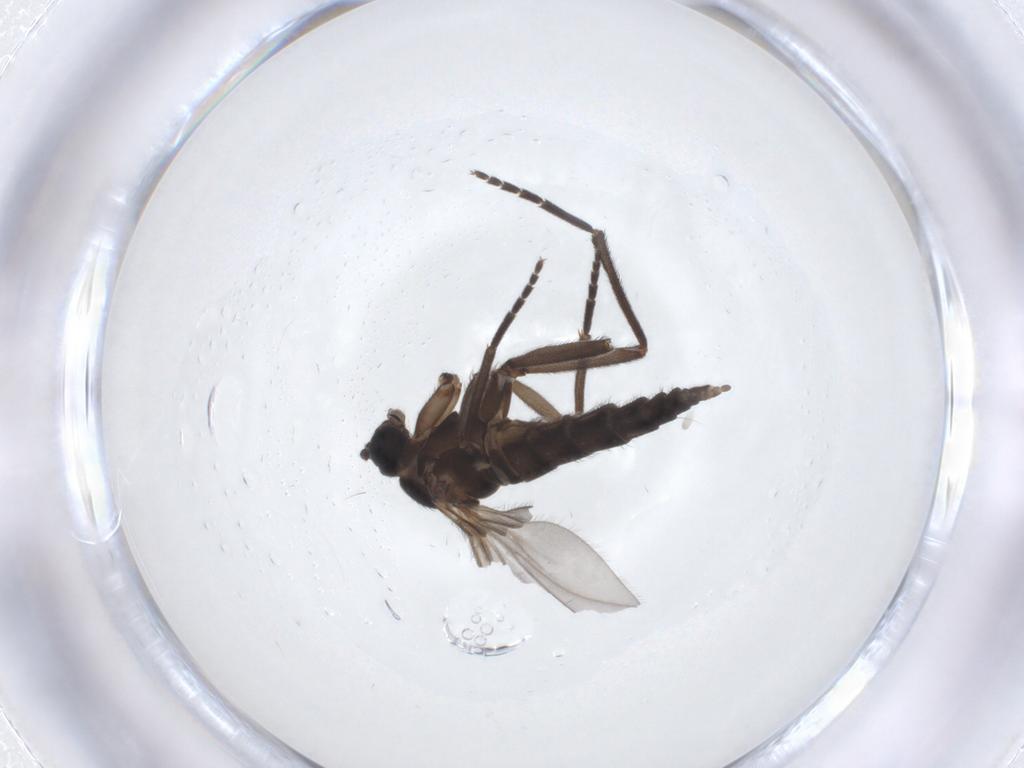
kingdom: Animalia
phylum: Arthropoda
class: Insecta
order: Diptera
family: Sciaridae
